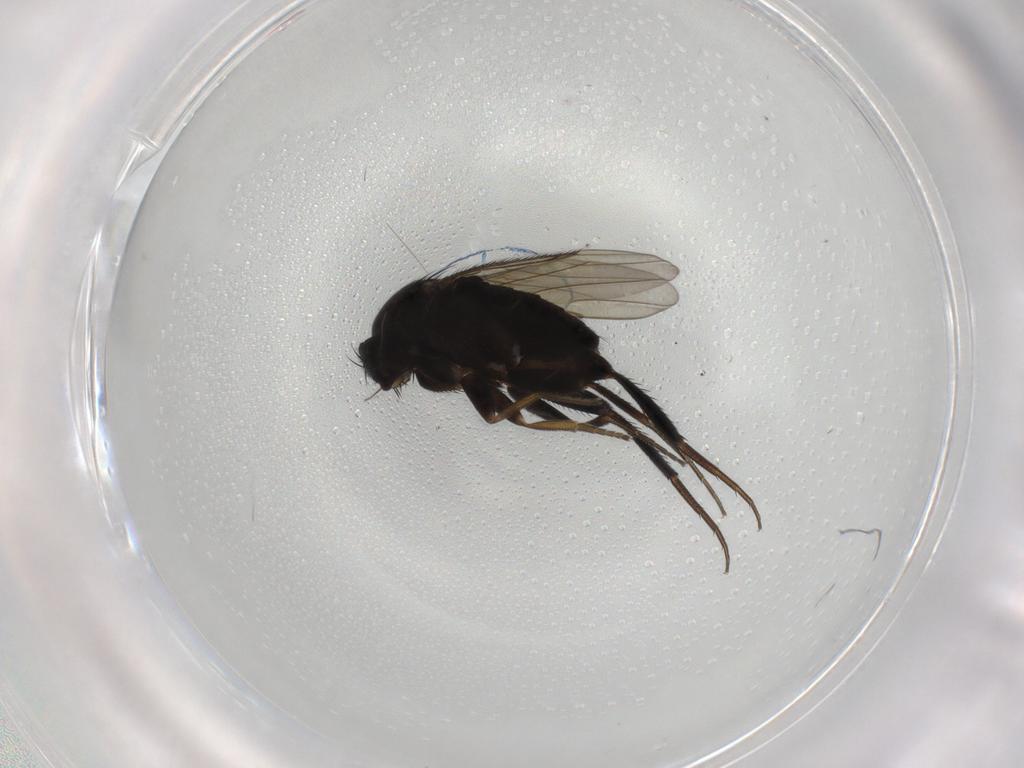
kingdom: Animalia
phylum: Arthropoda
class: Insecta
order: Diptera
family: Phoridae
